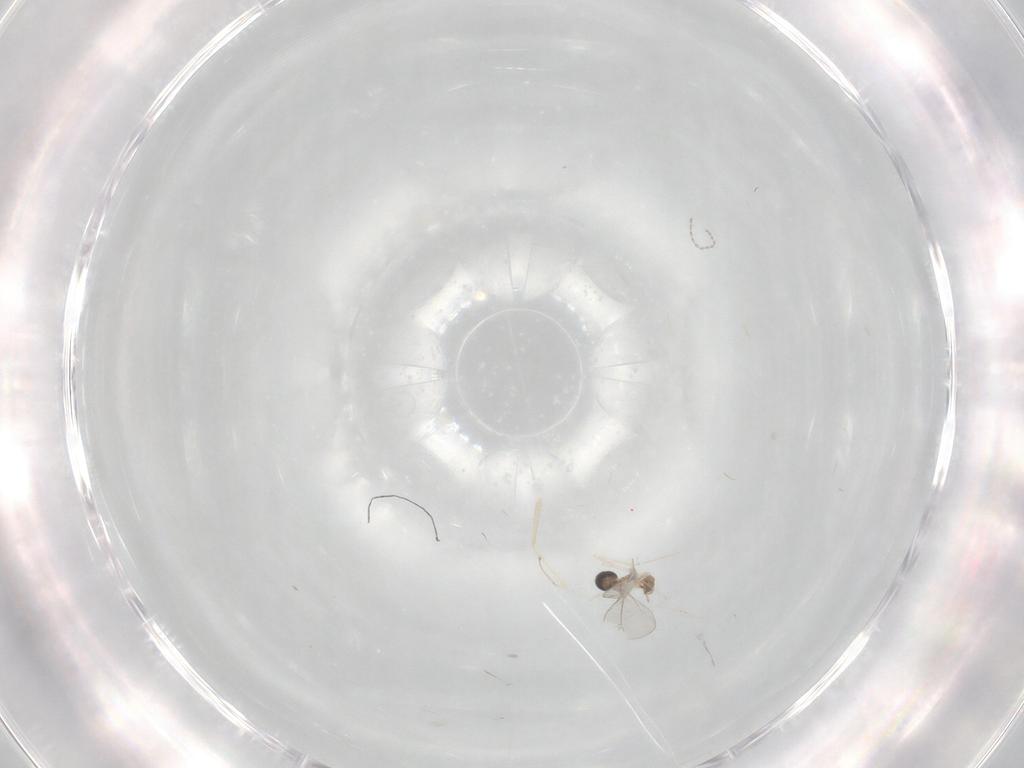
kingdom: Animalia
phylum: Arthropoda
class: Insecta
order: Diptera
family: Cecidomyiidae
